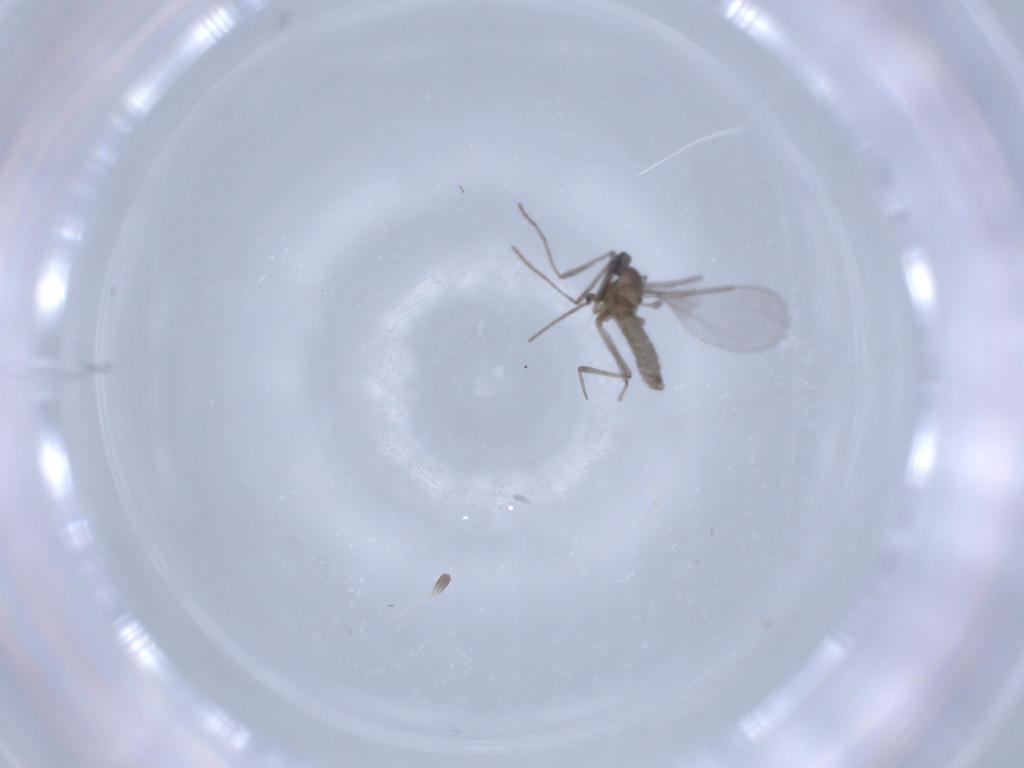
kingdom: Animalia
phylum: Arthropoda
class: Insecta
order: Diptera
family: Cecidomyiidae
